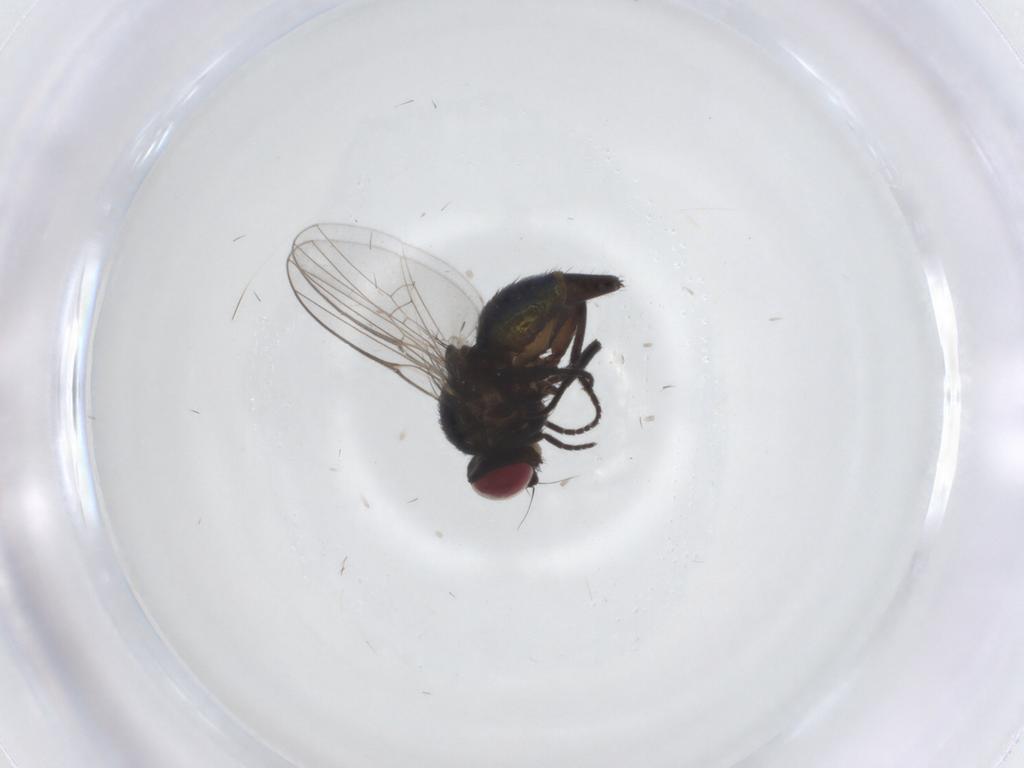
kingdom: Animalia
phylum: Arthropoda
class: Insecta
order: Diptera
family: Agromyzidae
